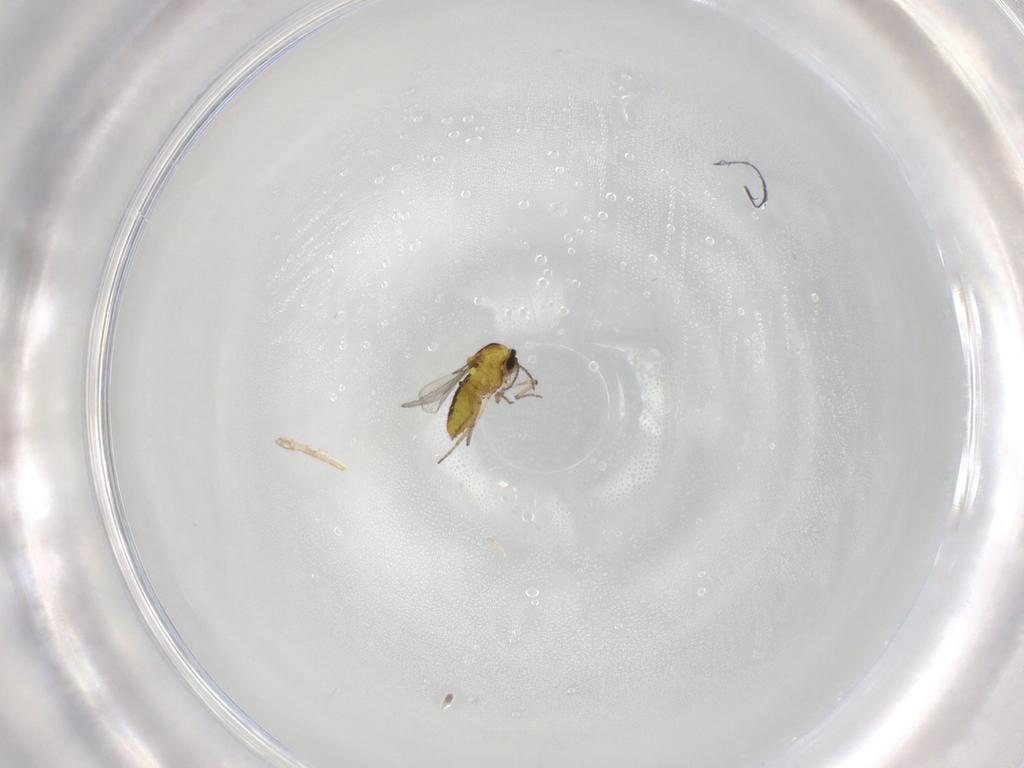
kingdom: Animalia
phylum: Arthropoda
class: Insecta
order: Diptera
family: Ceratopogonidae
